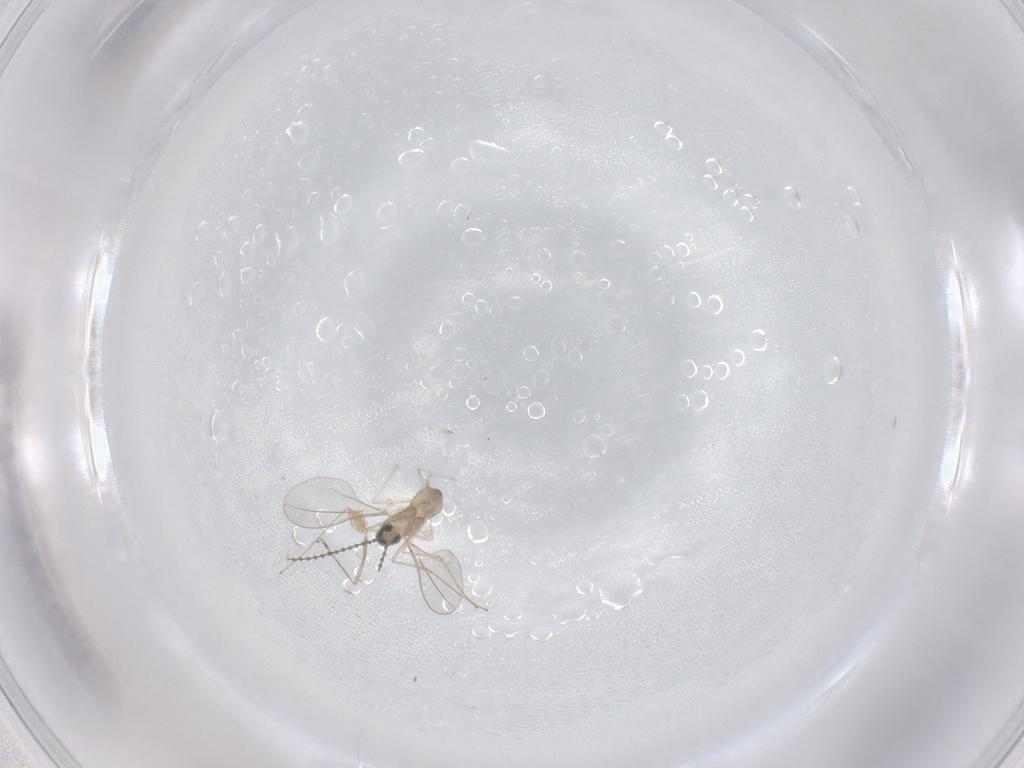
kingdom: Animalia
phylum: Arthropoda
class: Insecta
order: Diptera
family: Cecidomyiidae
